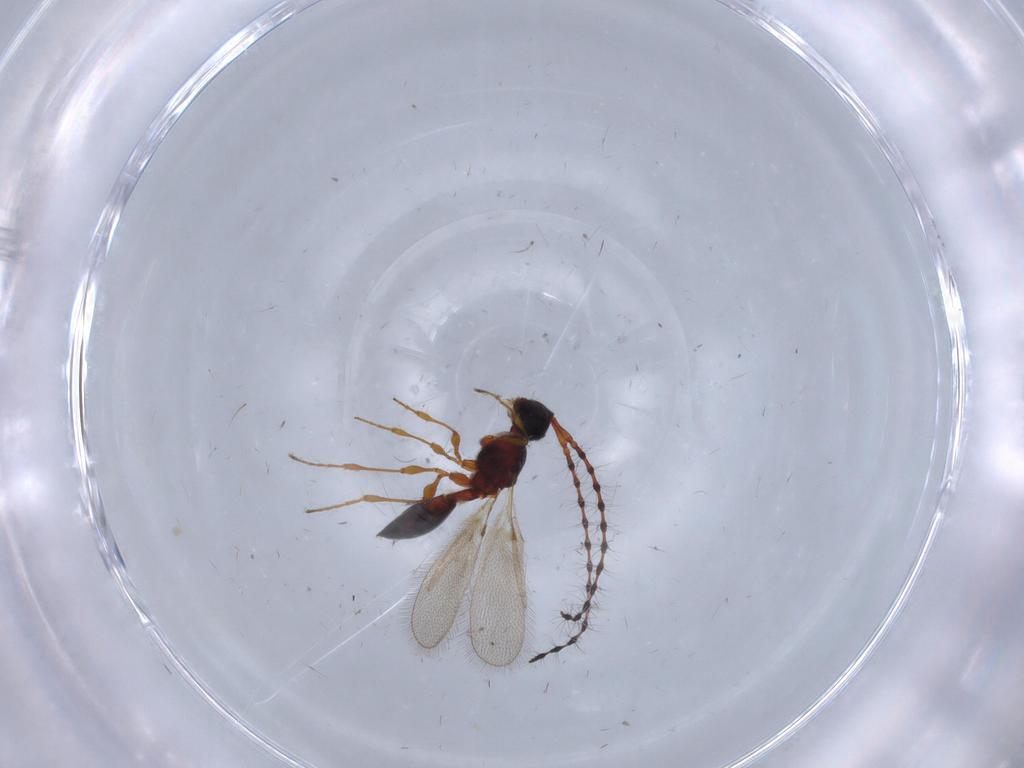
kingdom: Animalia
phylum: Arthropoda
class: Insecta
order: Hymenoptera
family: Diapriidae
